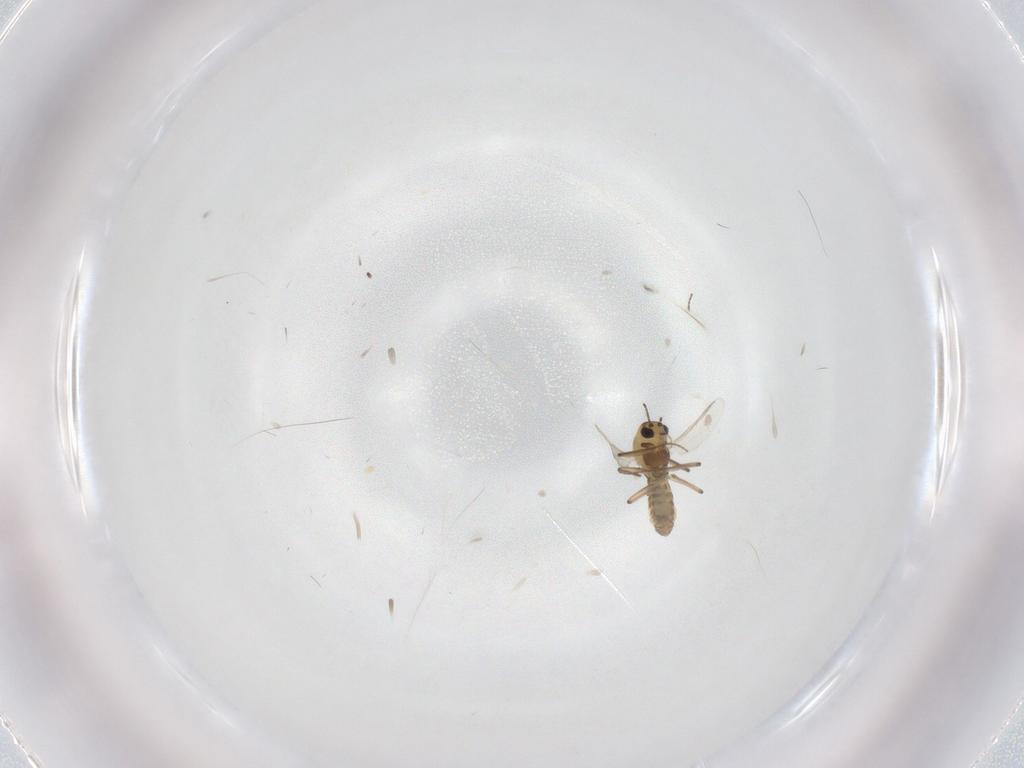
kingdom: Animalia
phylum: Arthropoda
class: Insecta
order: Diptera
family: Chironomidae
